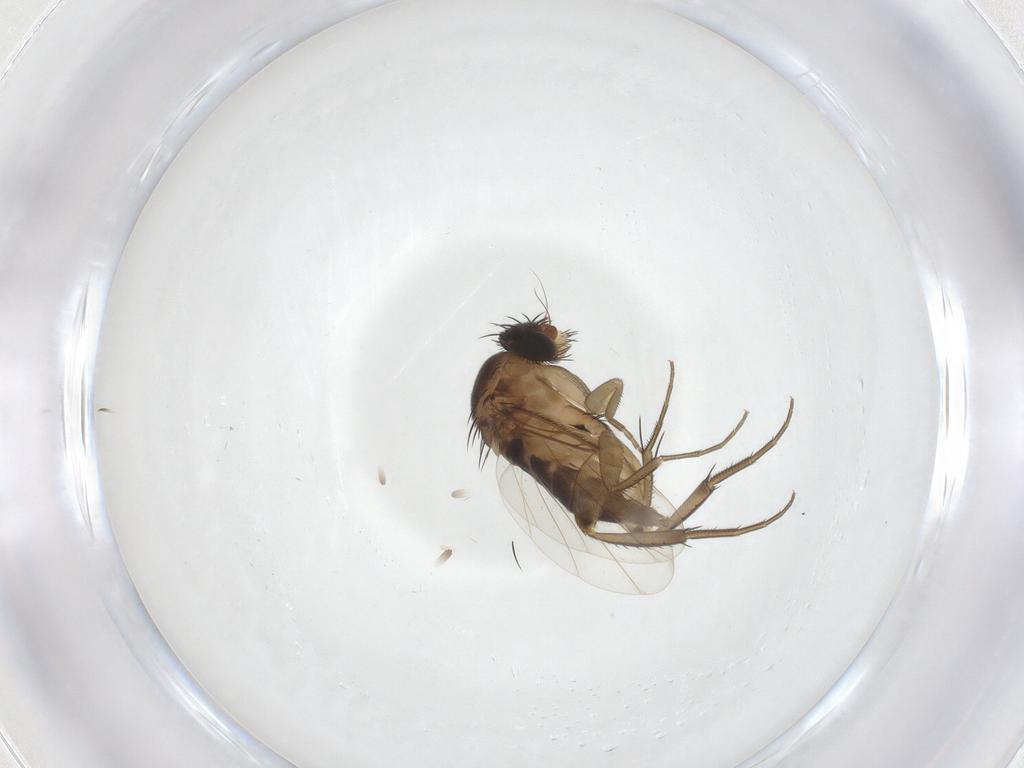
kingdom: Animalia
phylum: Arthropoda
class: Insecta
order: Diptera
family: Phoridae
